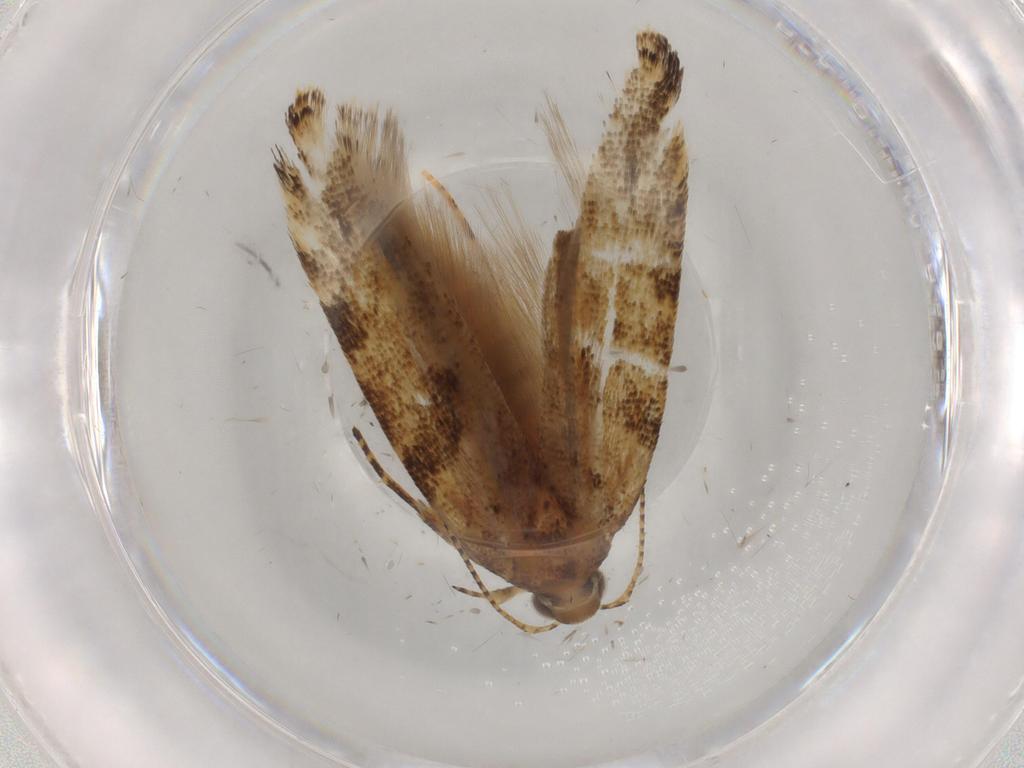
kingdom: Animalia
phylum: Arthropoda
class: Insecta
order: Lepidoptera
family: Gelechiidae
